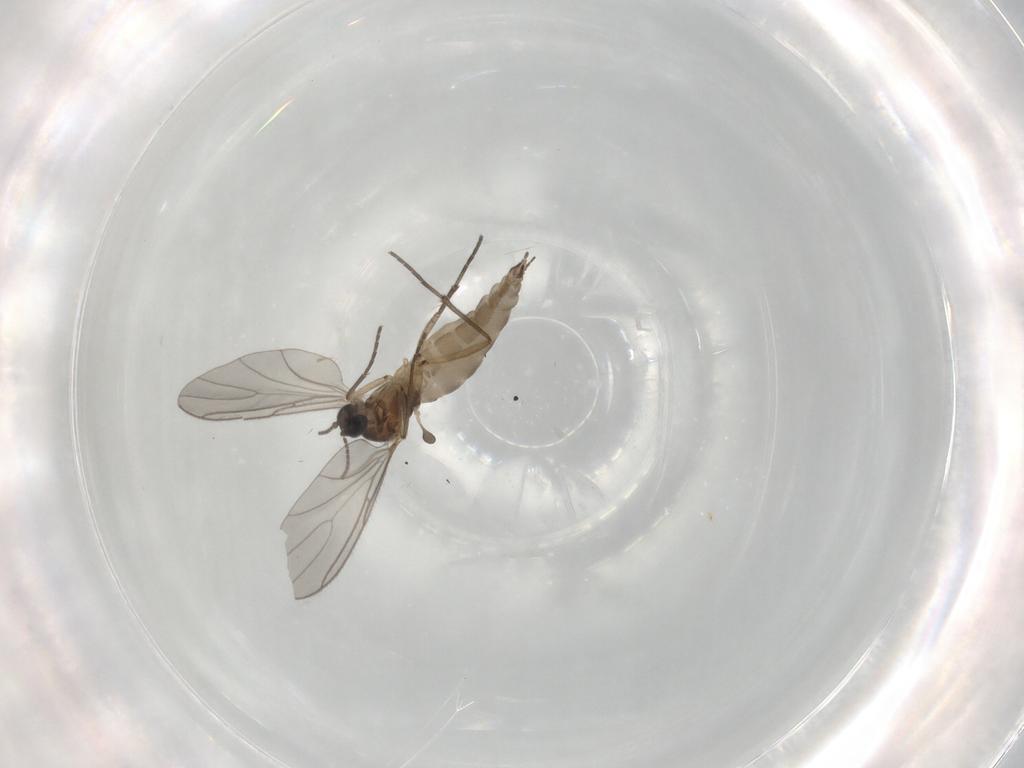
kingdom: Animalia
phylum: Arthropoda
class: Insecta
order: Diptera
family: Sciaridae
